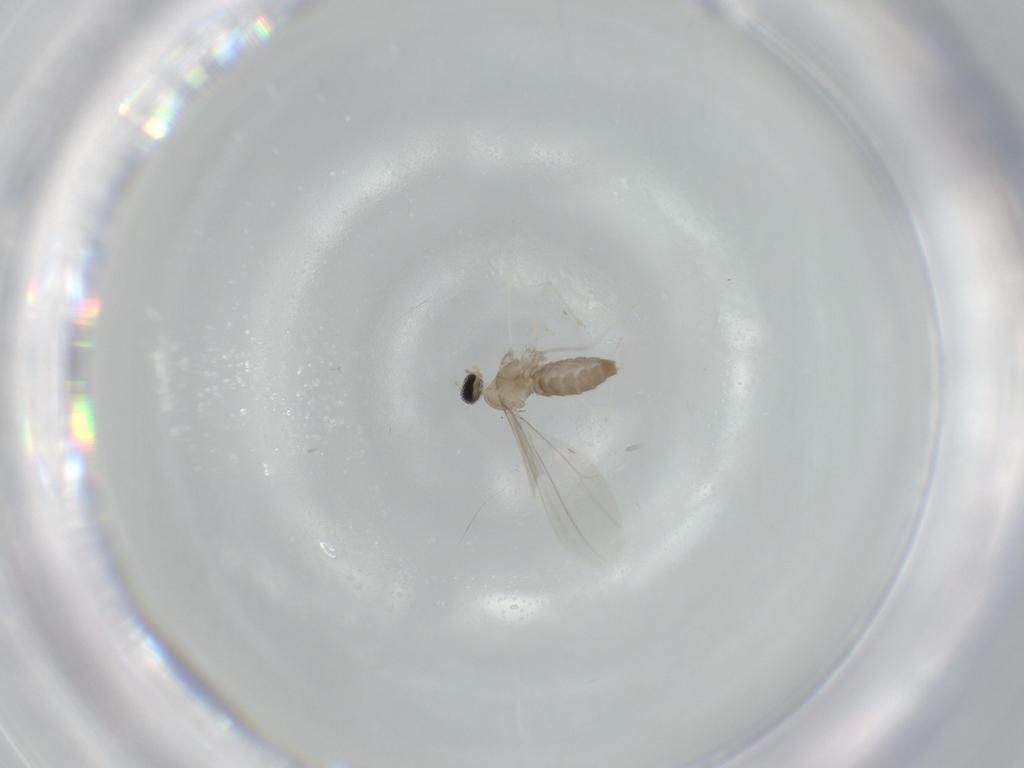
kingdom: Animalia
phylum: Arthropoda
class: Insecta
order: Diptera
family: Cecidomyiidae
